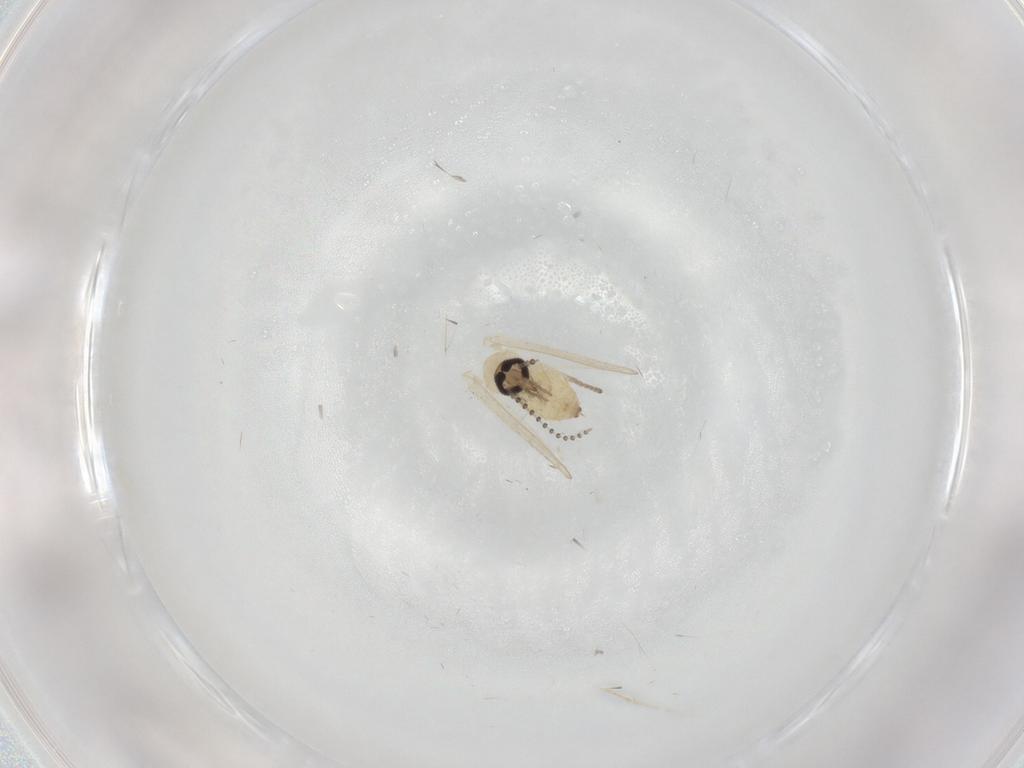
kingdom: Animalia
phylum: Arthropoda
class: Insecta
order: Diptera
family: Psychodidae
